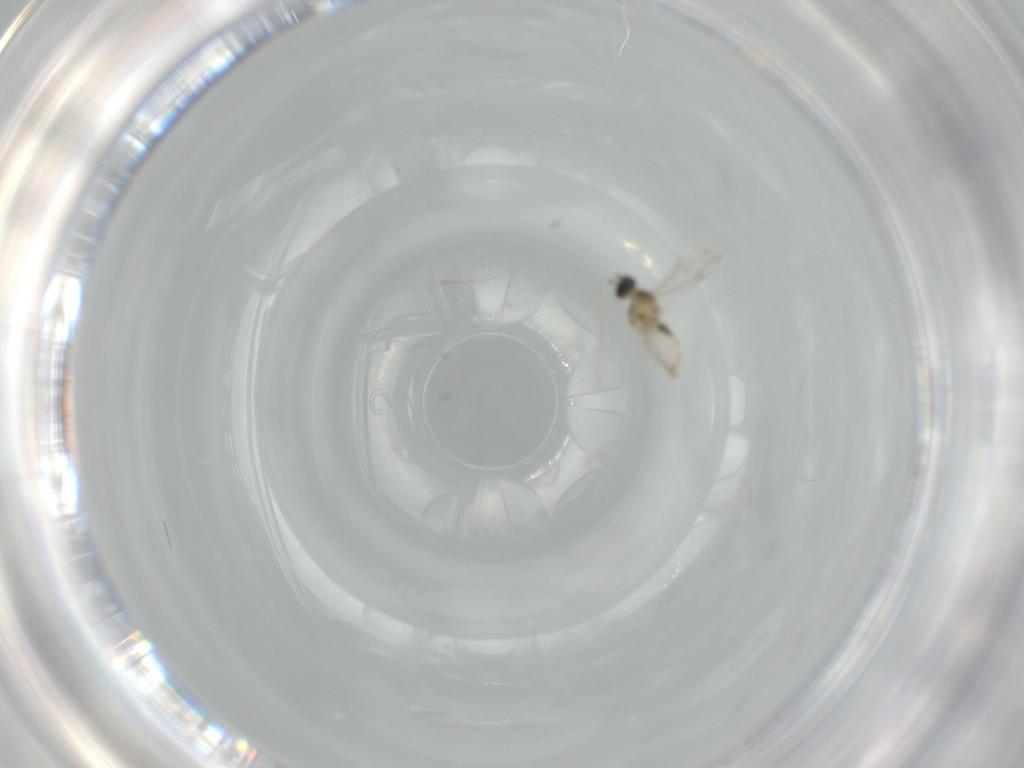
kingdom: Animalia
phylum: Arthropoda
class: Insecta
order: Diptera
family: Cecidomyiidae
